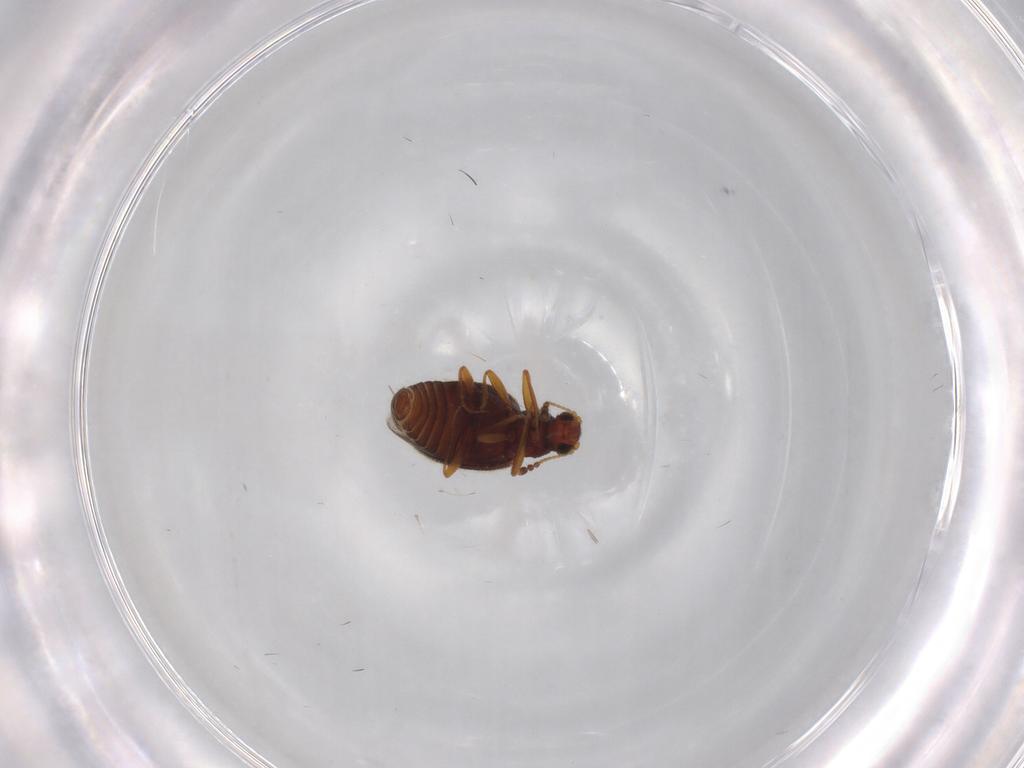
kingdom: Animalia
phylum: Arthropoda
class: Insecta
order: Coleoptera
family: Latridiidae
